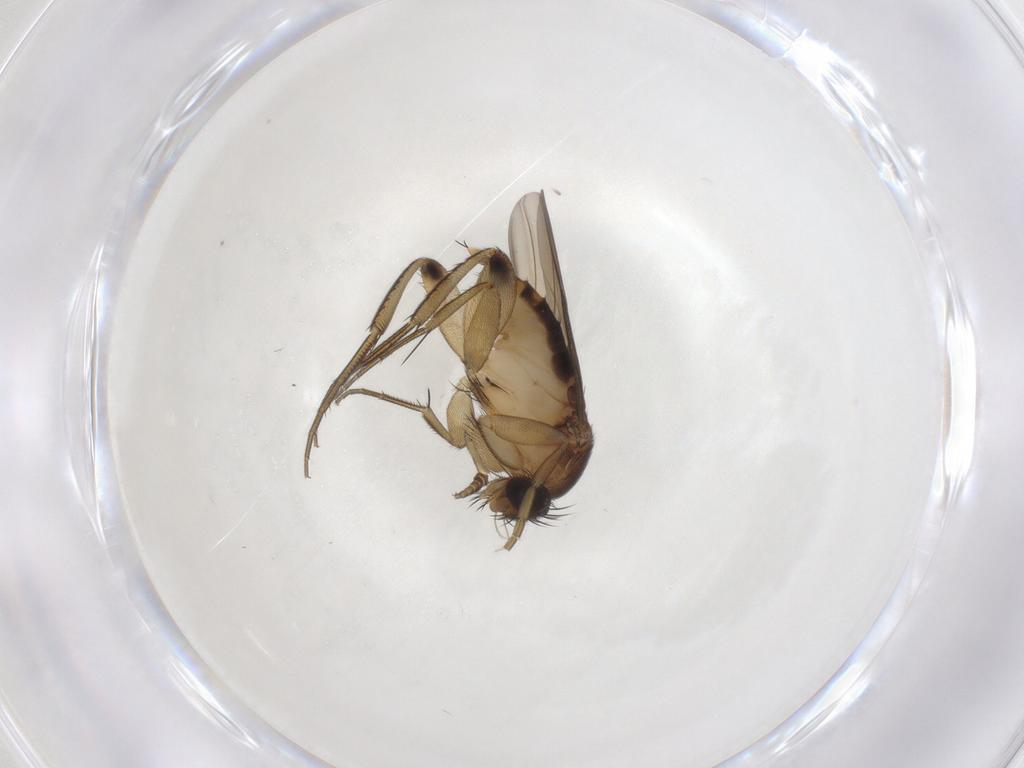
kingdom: Animalia
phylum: Arthropoda
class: Insecta
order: Diptera
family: Phoridae
